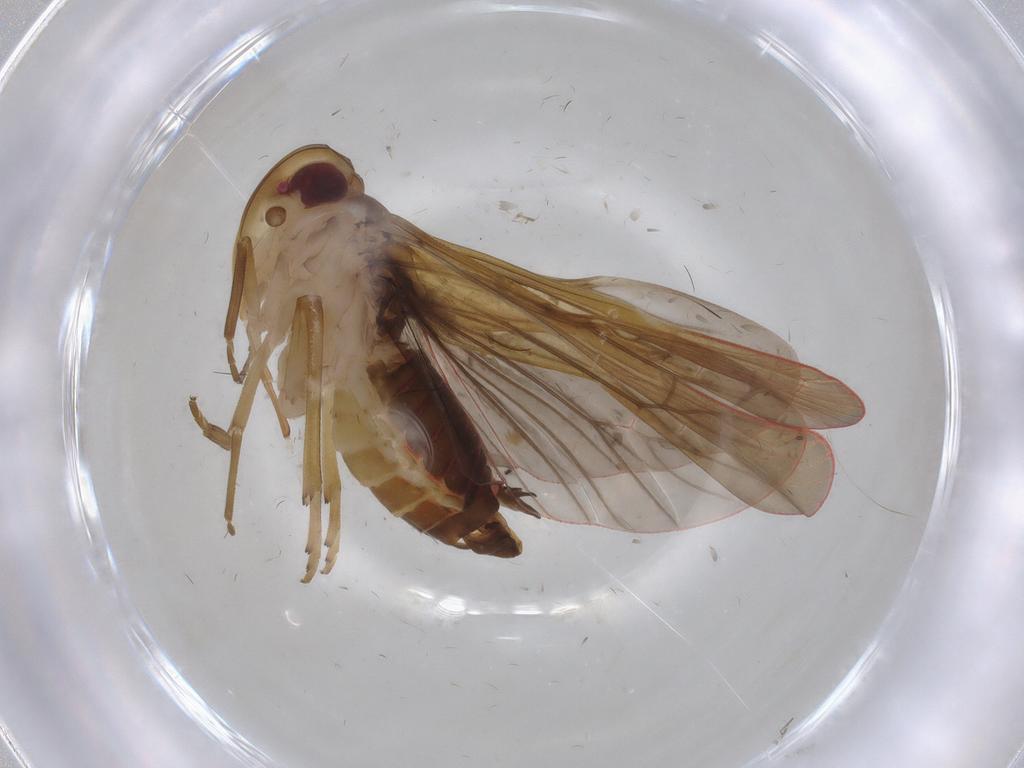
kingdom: Animalia
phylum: Arthropoda
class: Insecta
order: Hemiptera
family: Achilidae
